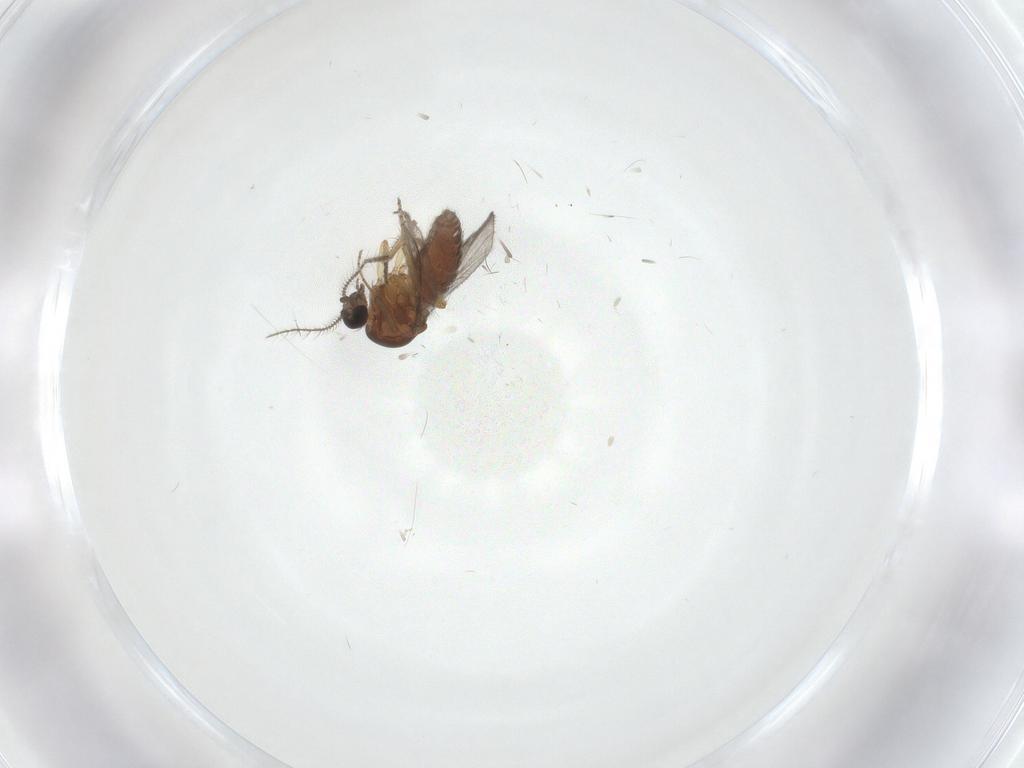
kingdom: Animalia
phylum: Arthropoda
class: Insecta
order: Diptera
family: Ceratopogonidae
